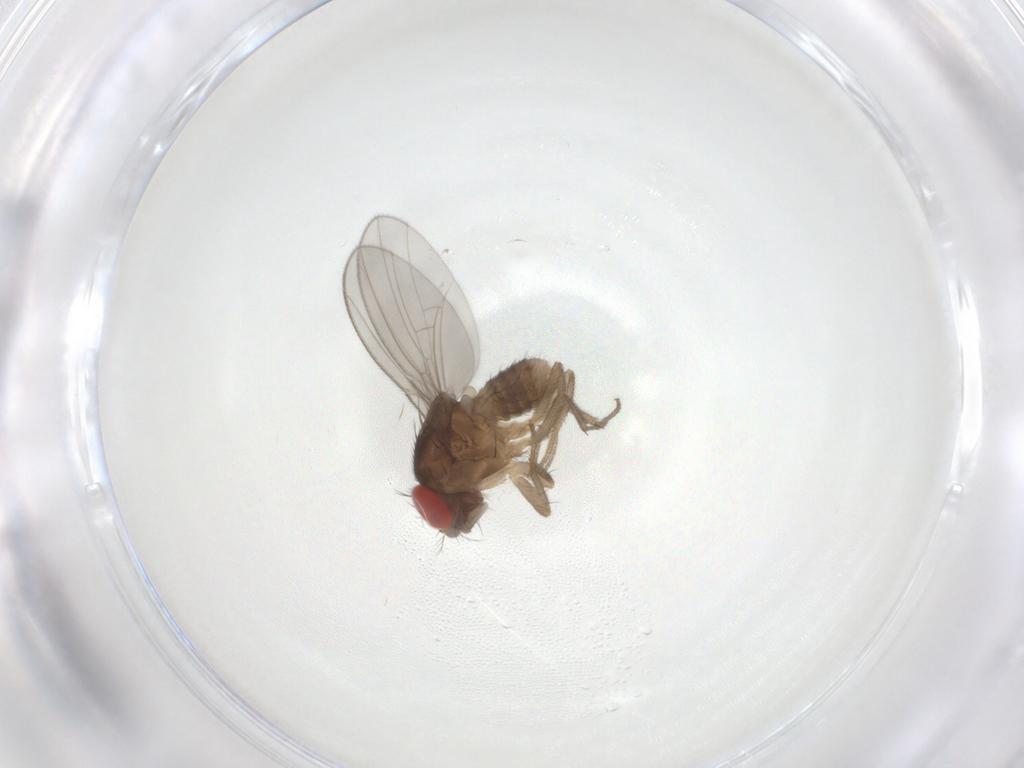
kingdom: Animalia
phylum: Arthropoda
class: Insecta
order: Diptera
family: Drosophilidae
